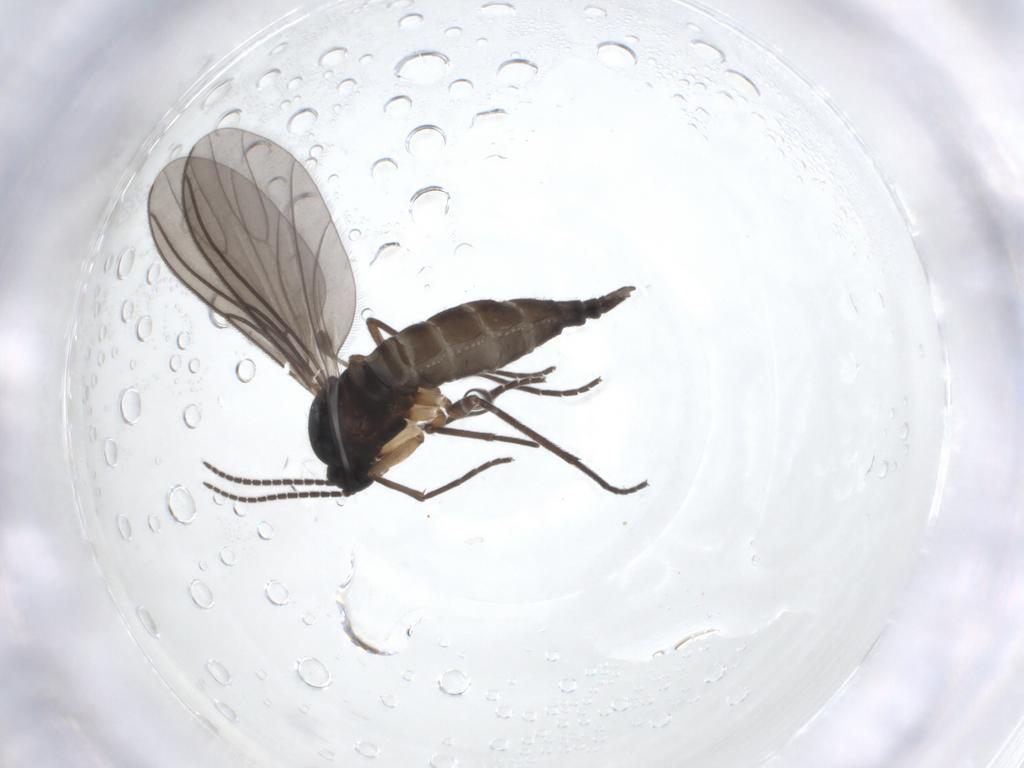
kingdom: Animalia
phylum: Arthropoda
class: Insecta
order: Diptera
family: Sciaridae
